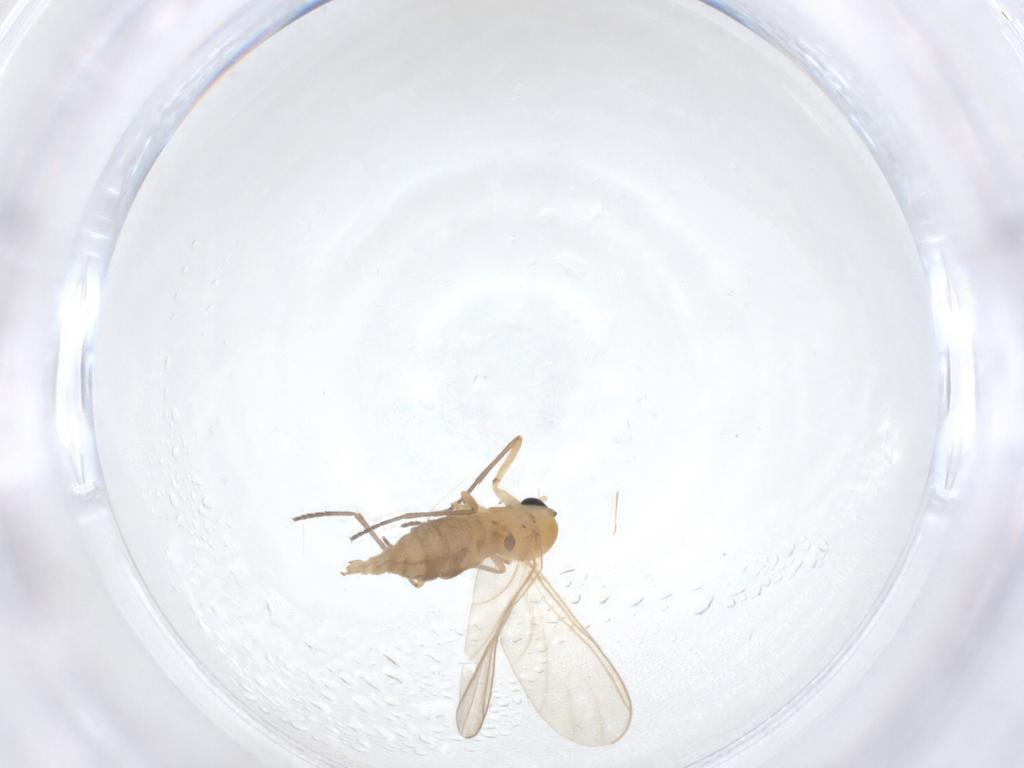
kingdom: Animalia
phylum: Arthropoda
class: Insecta
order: Diptera
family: Sciaridae
